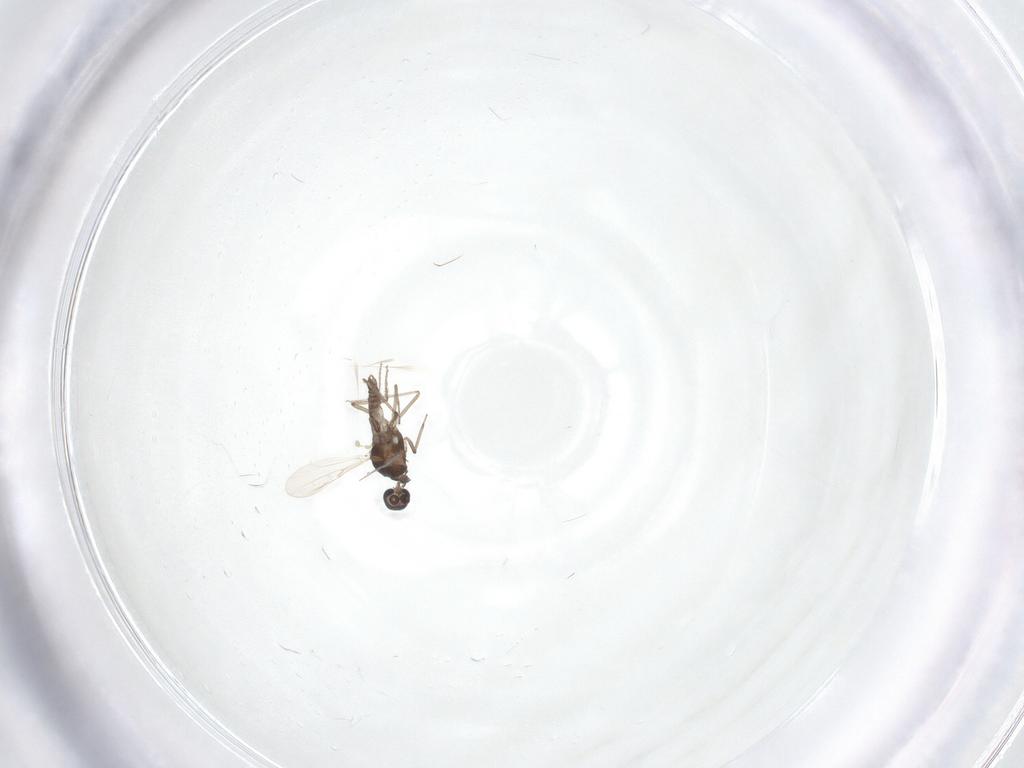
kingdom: Animalia
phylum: Arthropoda
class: Insecta
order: Diptera
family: Ceratopogonidae
